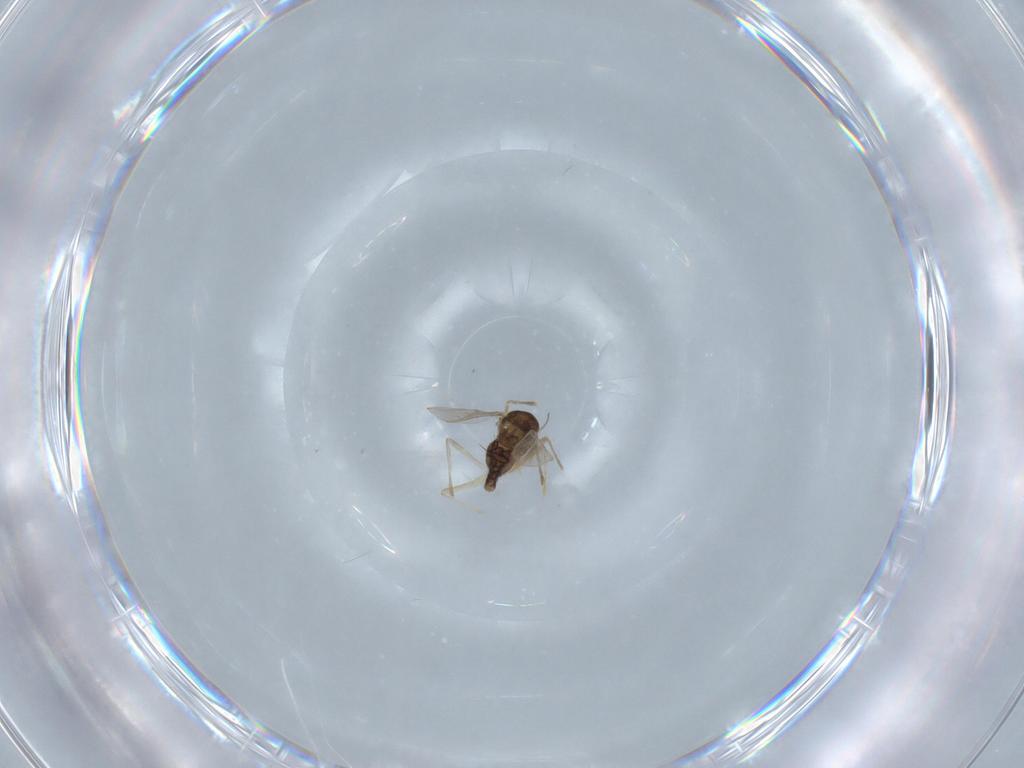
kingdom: Animalia
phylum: Arthropoda
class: Insecta
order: Diptera
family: Chironomidae
